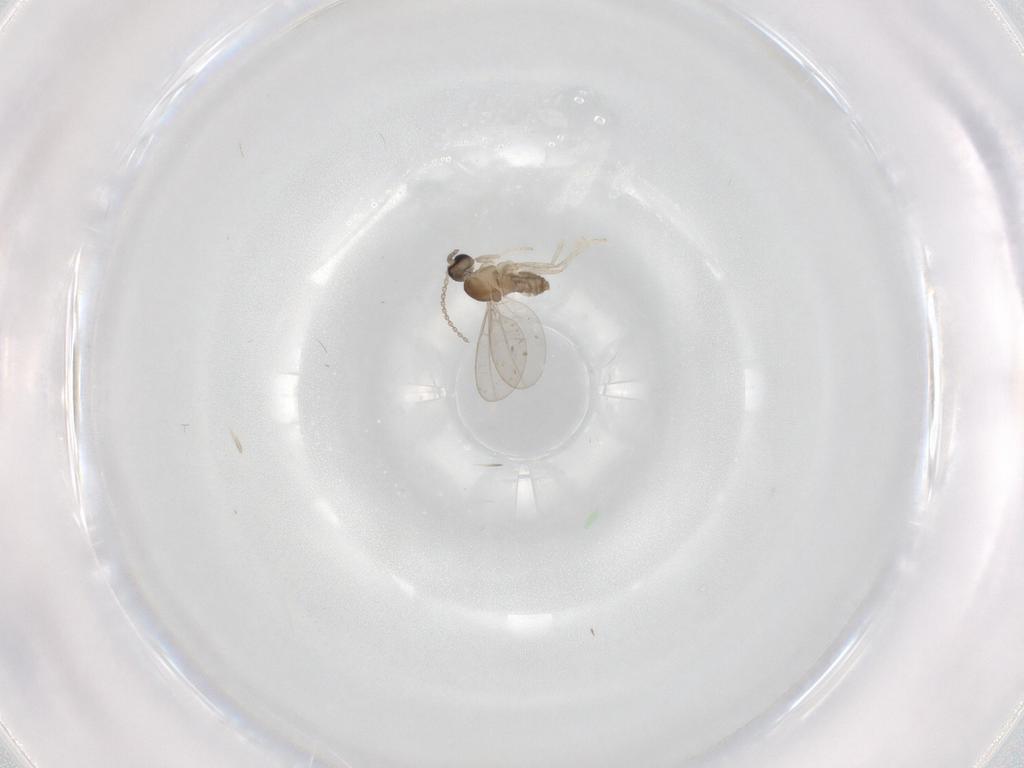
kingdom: Animalia
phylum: Arthropoda
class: Insecta
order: Diptera
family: Cecidomyiidae
